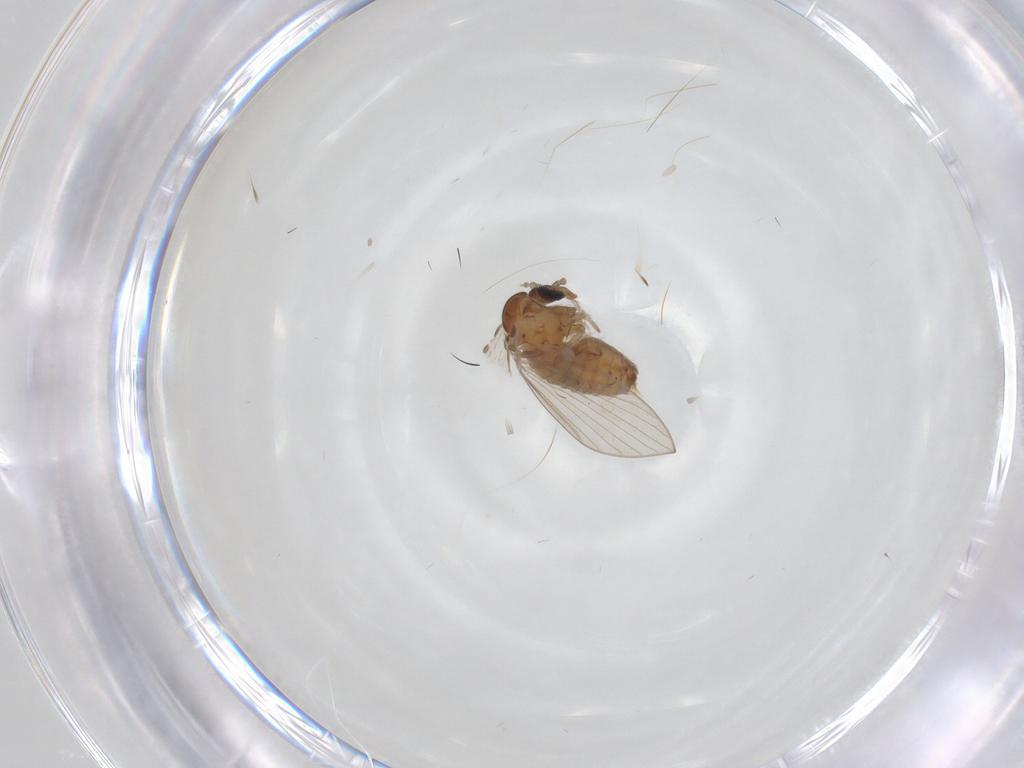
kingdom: Animalia
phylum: Arthropoda
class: Insecta
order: Diptera
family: Psychodidae
